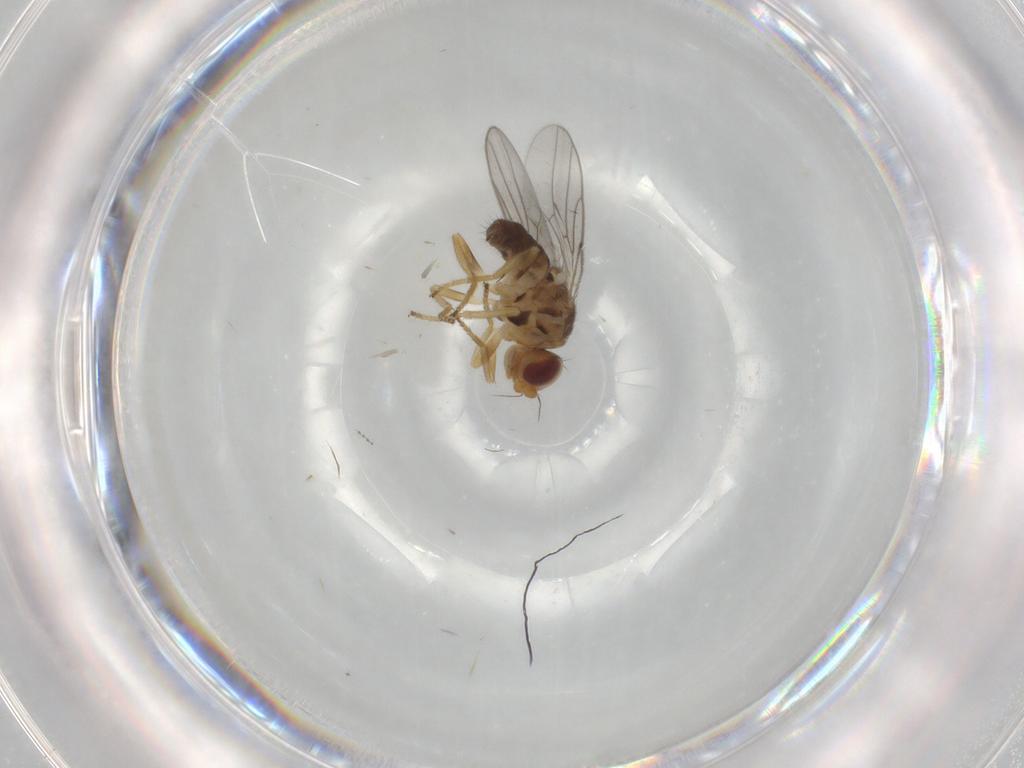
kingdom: Animalia
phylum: Arthropoda
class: Insecta
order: Diptera
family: Chloropidae
